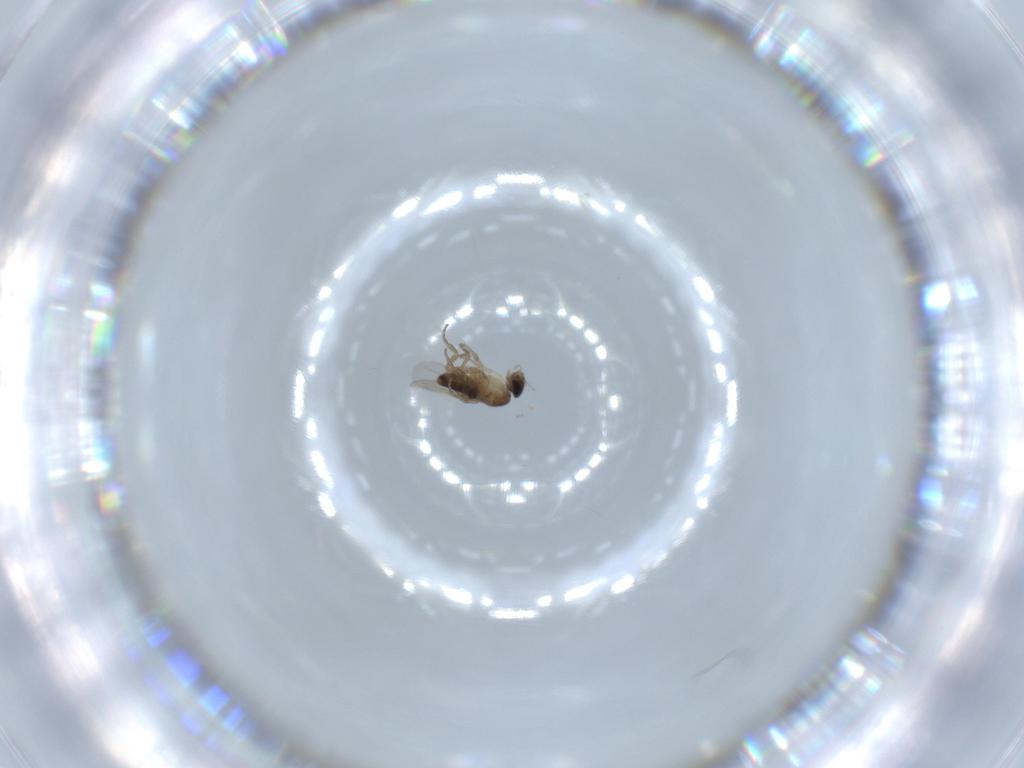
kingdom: Animalia
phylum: Arthropoda
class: Insecta
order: Diptera
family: Phoridae
